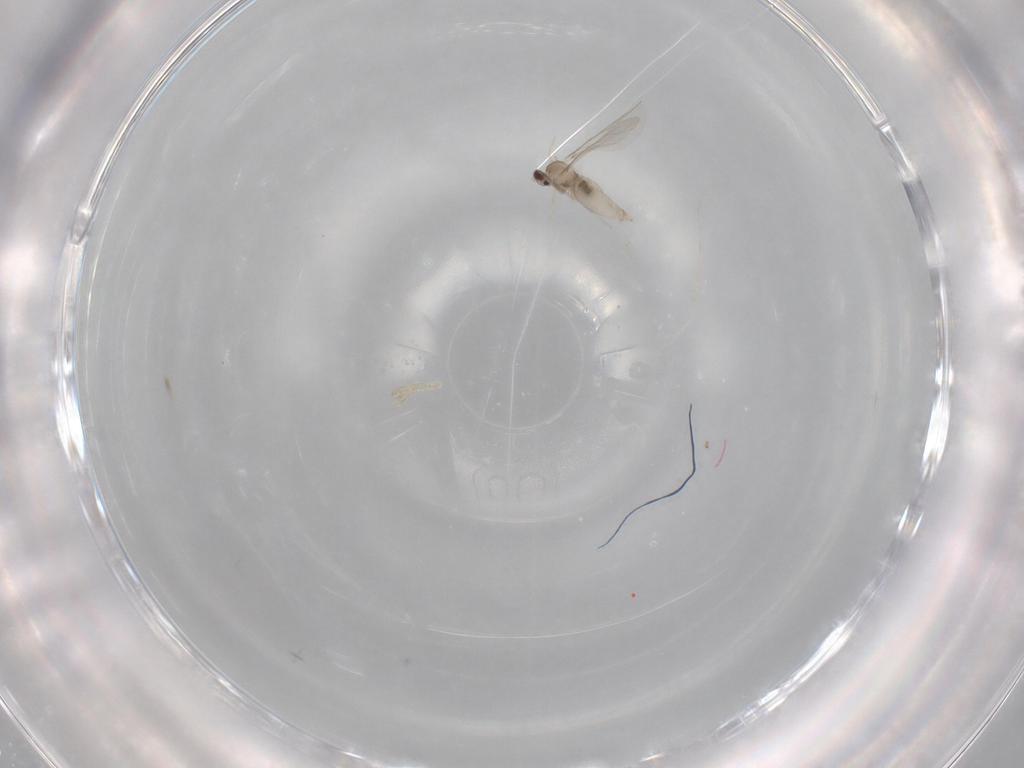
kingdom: Animalia
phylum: Arthropoda
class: Insecta
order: Diptera
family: Cecidomyiidae
